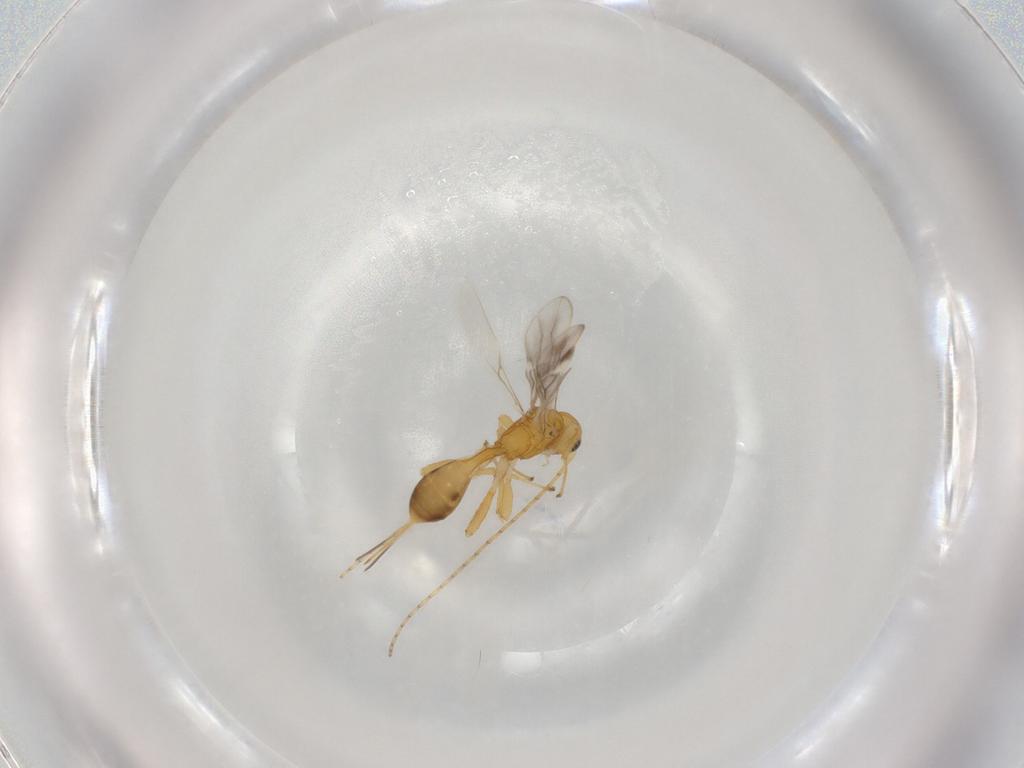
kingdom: Animalia
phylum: Arthropoda
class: Insecta
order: Hymenoptera
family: Braconidae
